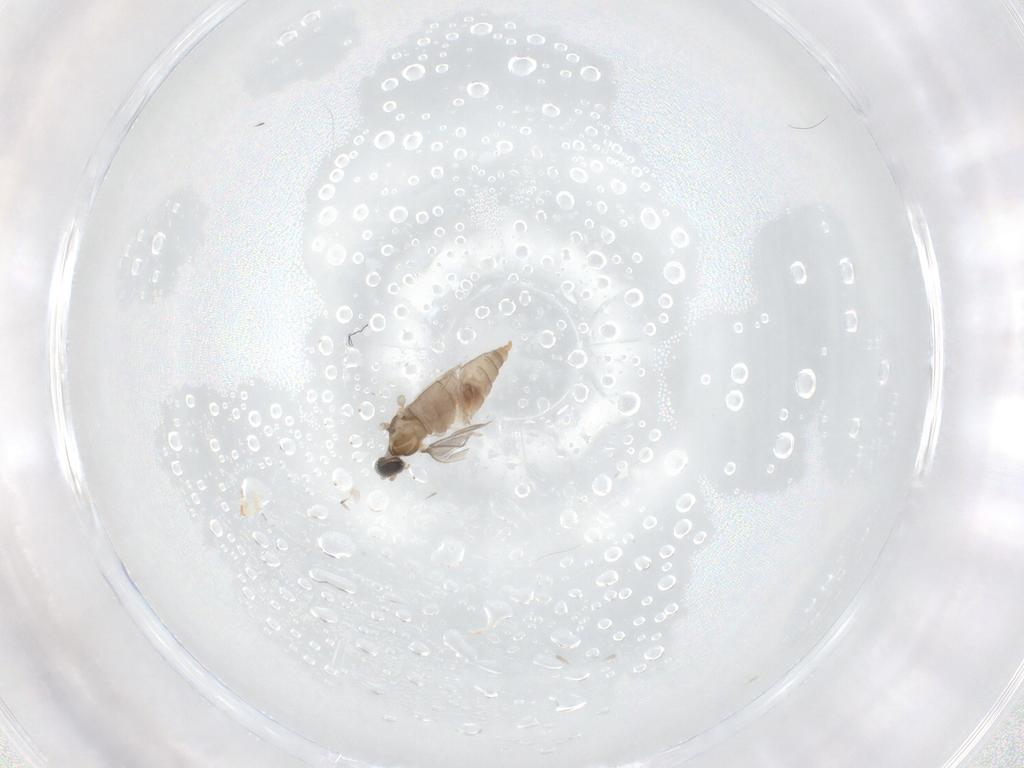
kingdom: Animalia
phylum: Arthropoda
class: Insecta
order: Diptera
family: Cecidomyiidae
